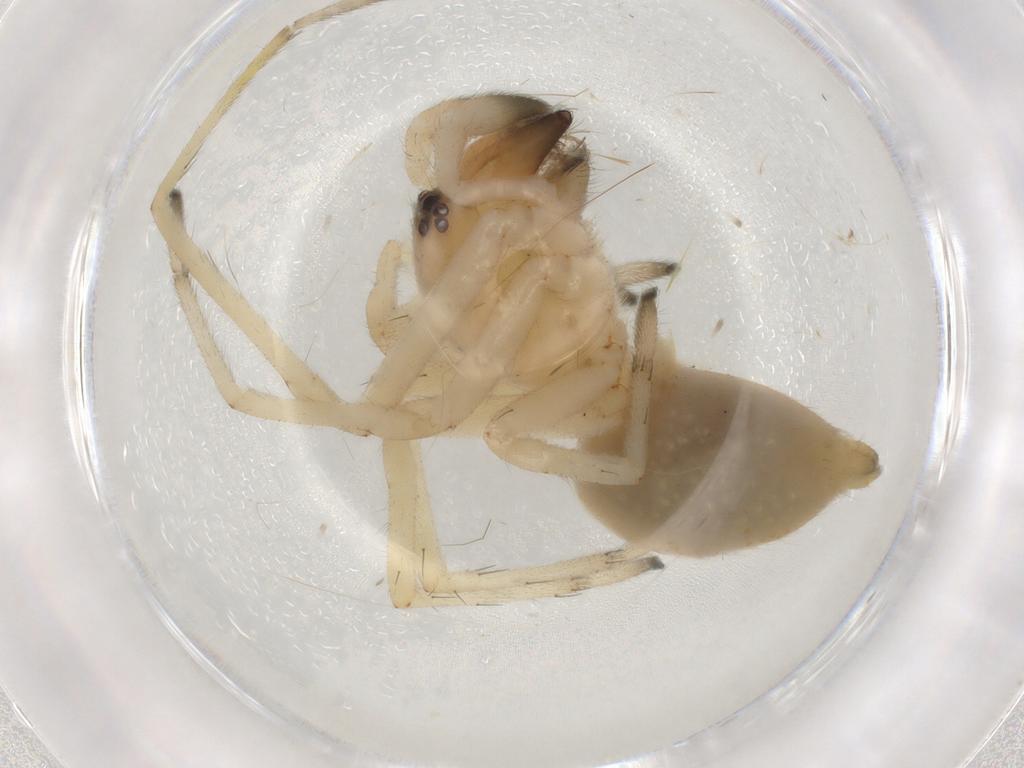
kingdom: Animalia
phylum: Arthropoda
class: Arachnida
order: Araneae
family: Cheiracanthiidae
